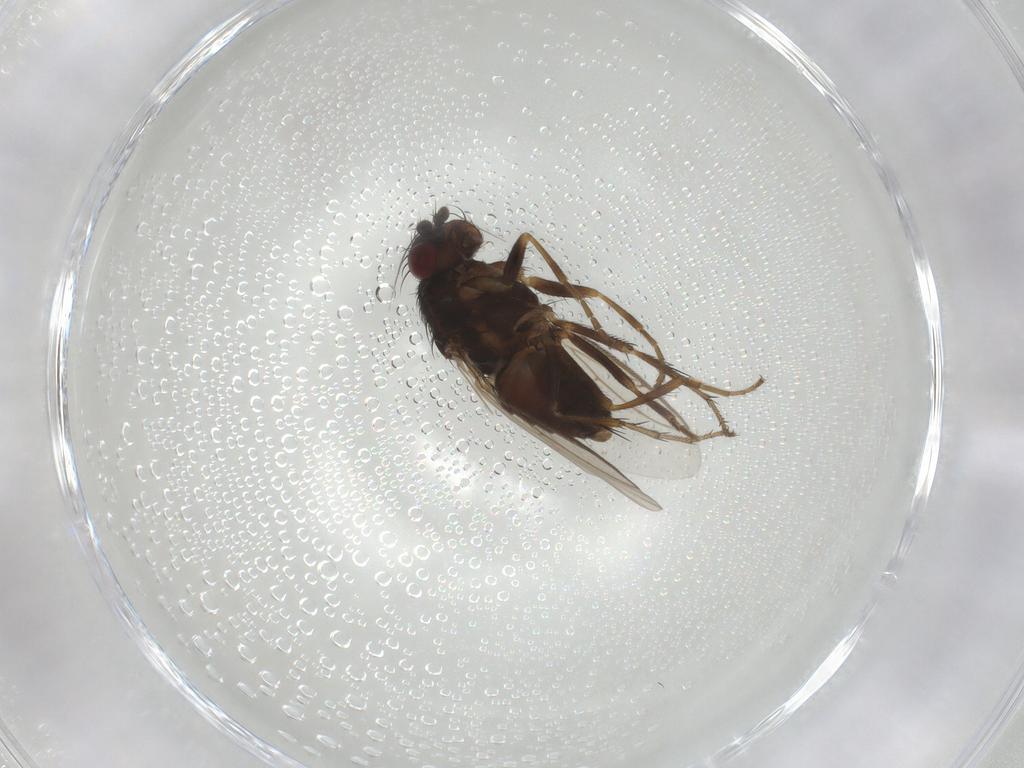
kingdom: Animalia
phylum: Arthropoda
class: Insecta
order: Diptera
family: Sphaeroceridae
